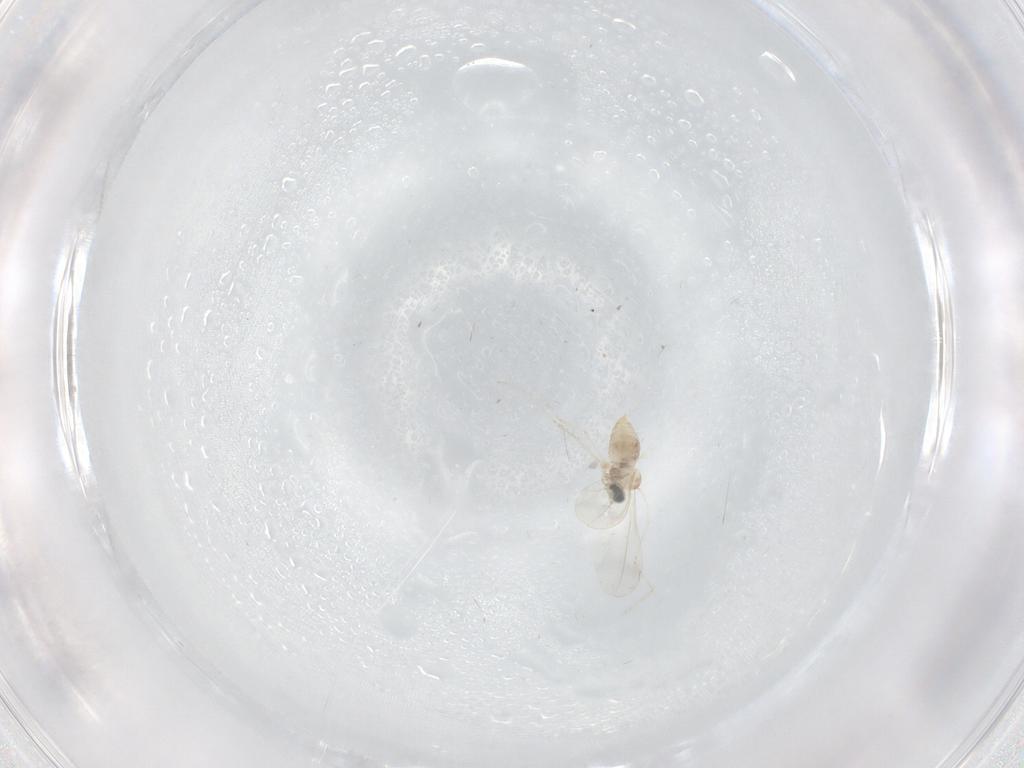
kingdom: Animalia
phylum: Arthropoda
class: Insecta
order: Diptera
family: Cecidomyiidae
